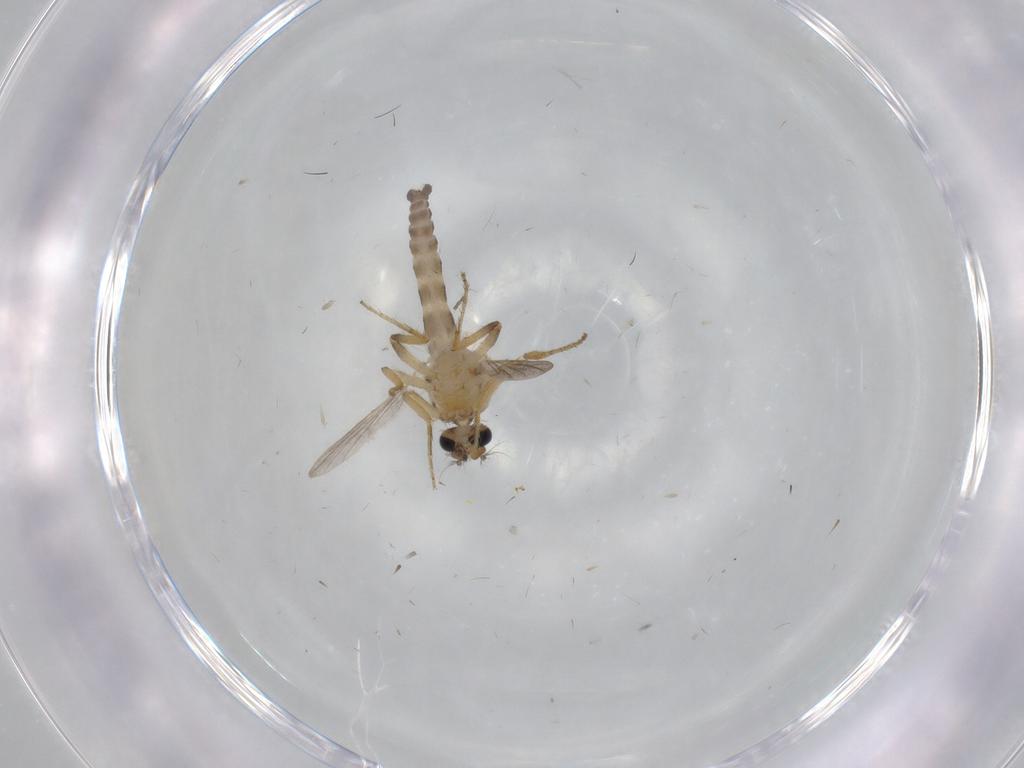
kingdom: Animalia
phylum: Arthropoda
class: Insecta
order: Diptera
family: Ceratopogonidae
